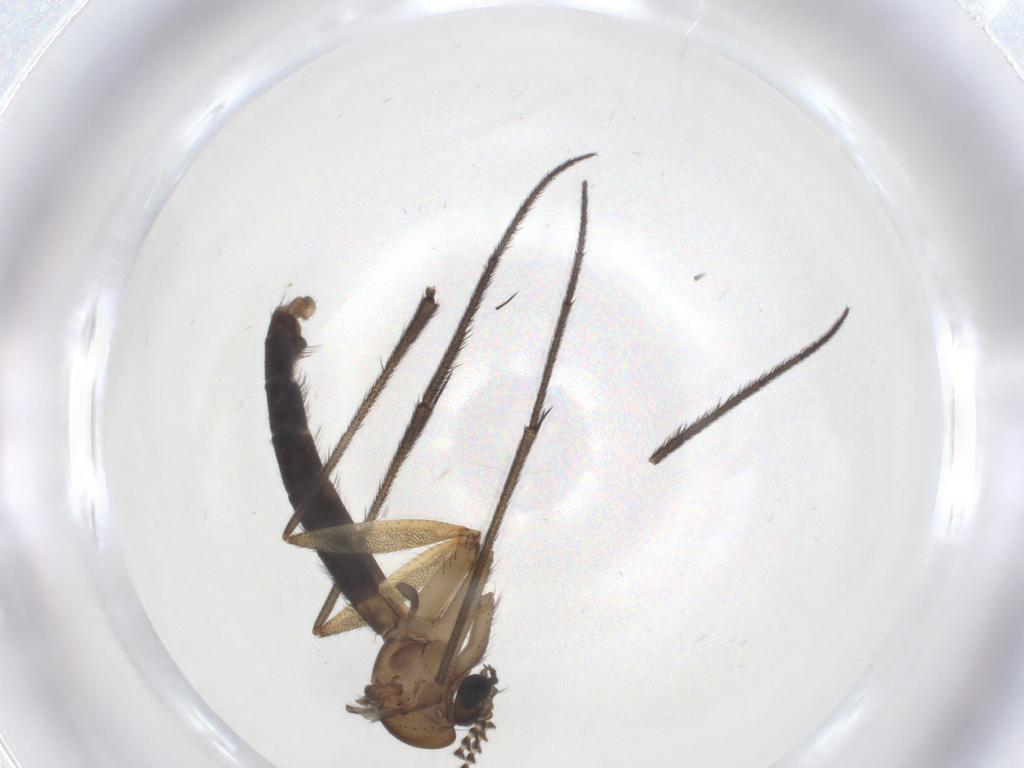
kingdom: Animalia
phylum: Arthropoda
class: Insecta
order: Diptera
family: Ditomyiidae
